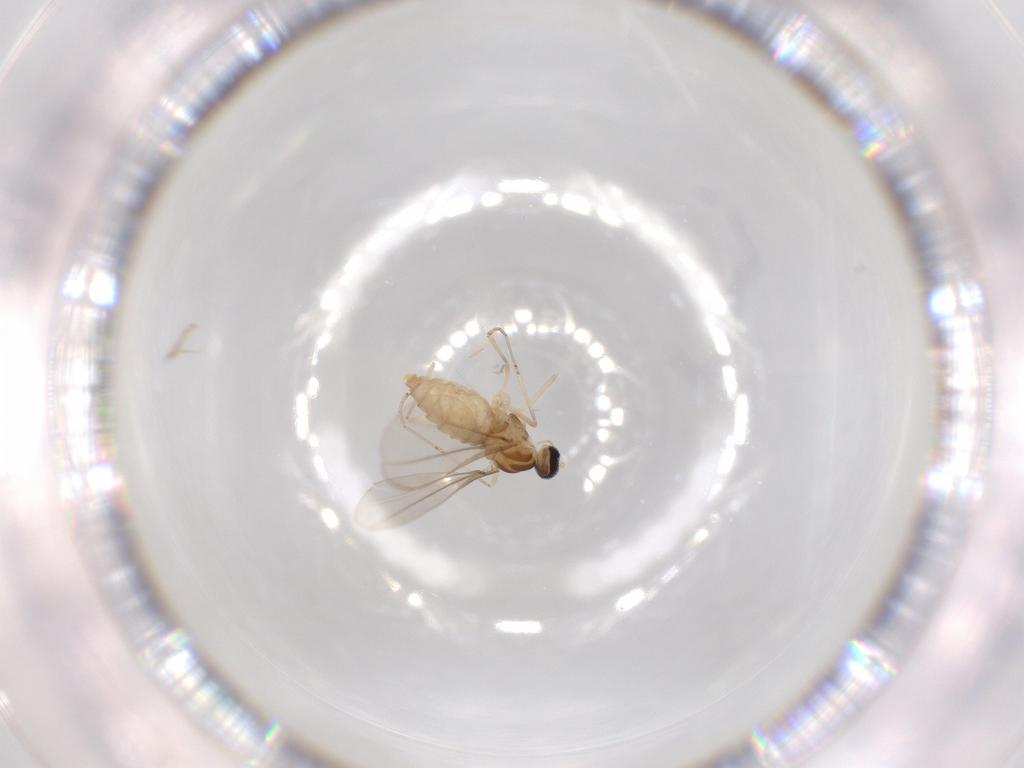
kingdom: Animalia
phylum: Arthropoda
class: Insecta
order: Diptera
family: Cecidomyiidae
